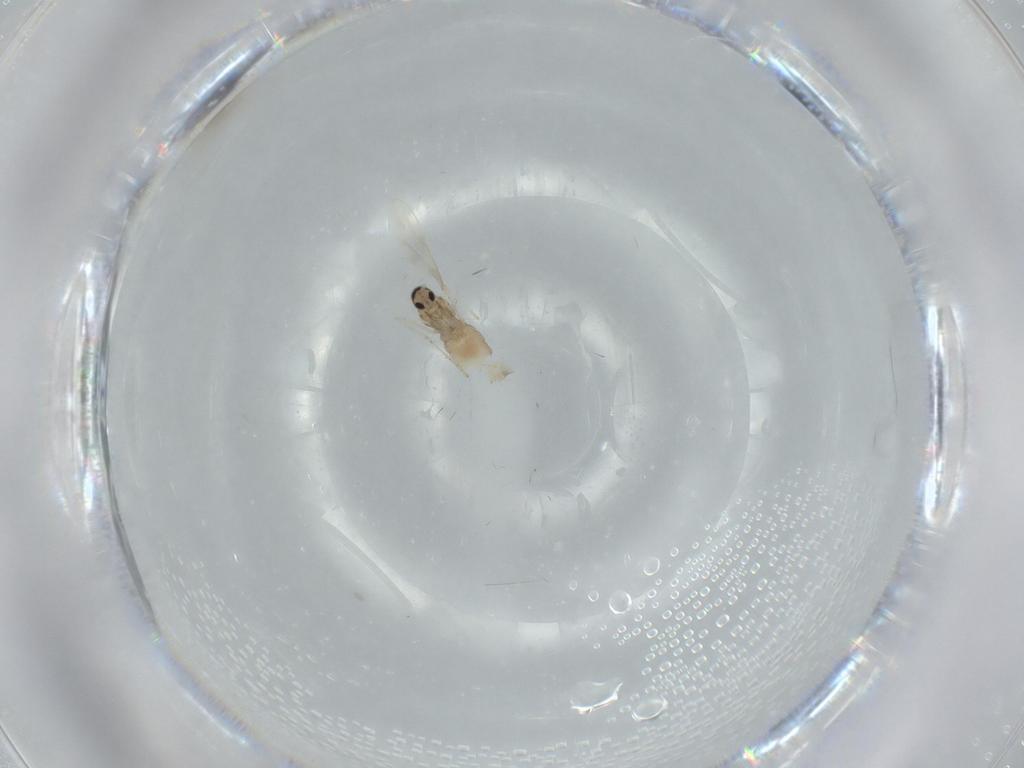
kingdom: Animalia
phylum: Arthropoda
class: Insecta
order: Diptera
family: Cecidomyiidae
